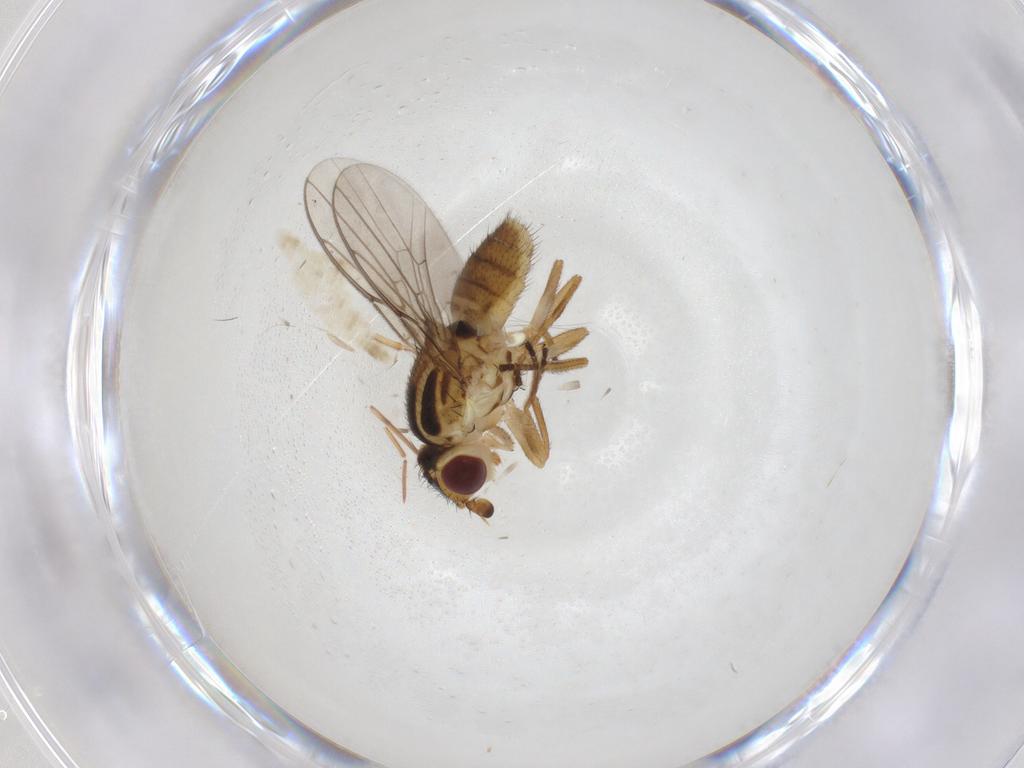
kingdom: Animalia
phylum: Arthropoda
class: Insecta
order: Diptera
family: Chloropidae
